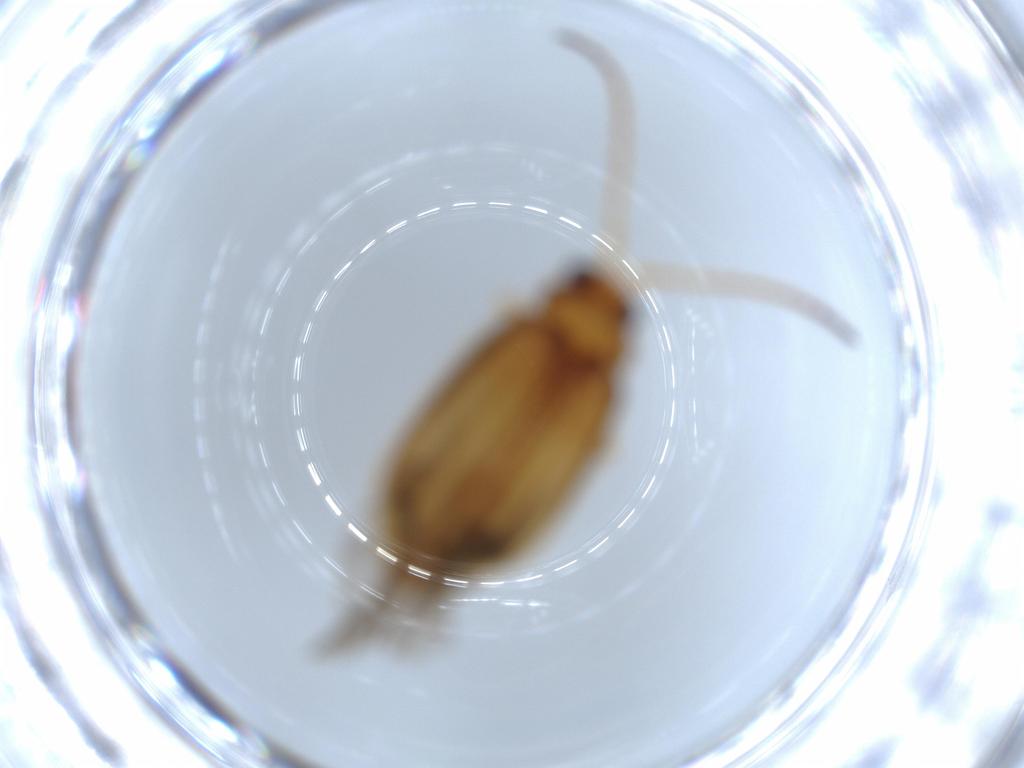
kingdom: Animalia
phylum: Arthropoda
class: Insecta
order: Coleoptera
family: Chrysomelidae
